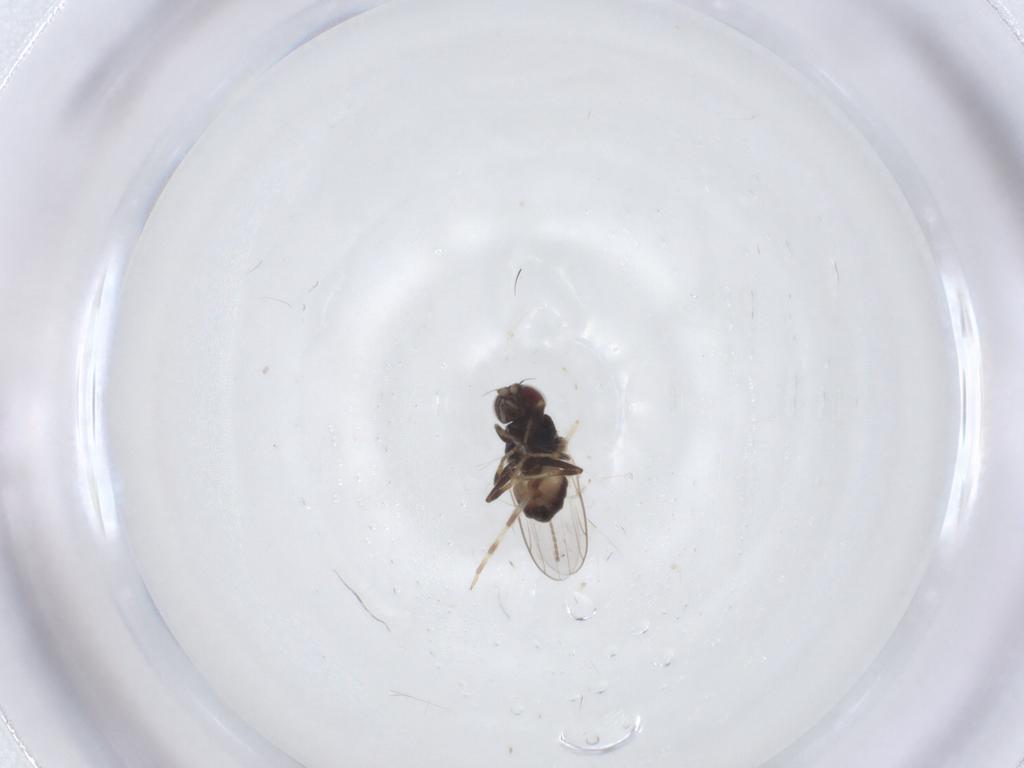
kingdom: Animalia
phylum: Arthropoda
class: Insecta
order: Diptera
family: Chloropidae
